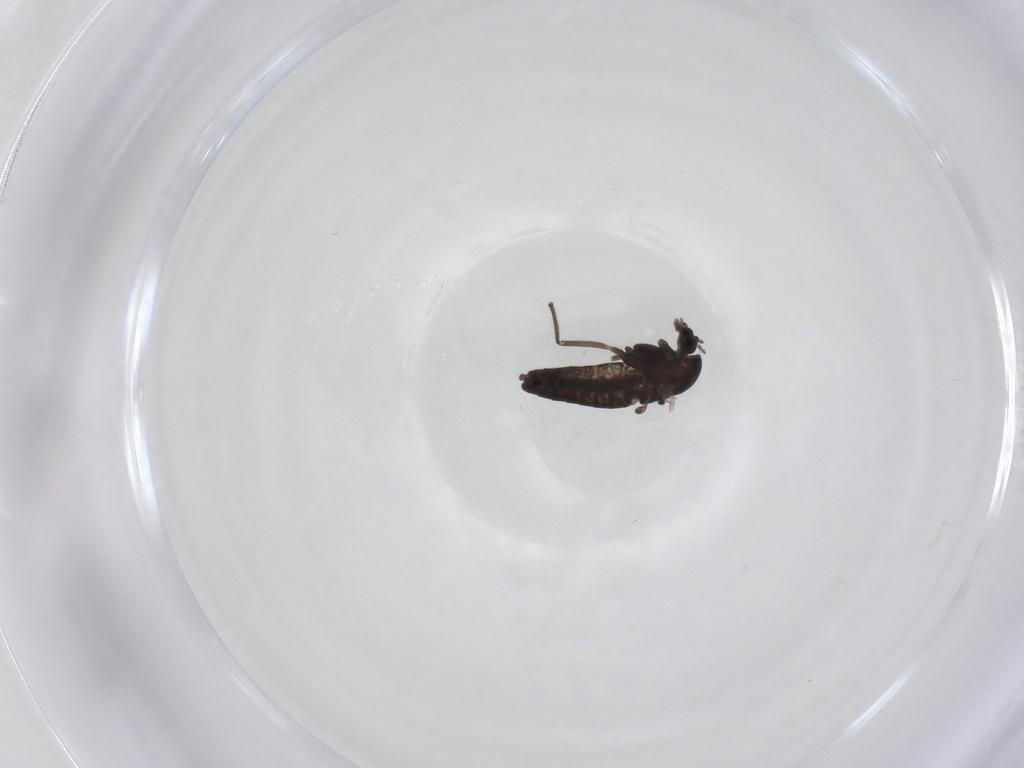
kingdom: Animalia
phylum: Arthropoda
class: Insecta
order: Diptera
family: Chironomidae
